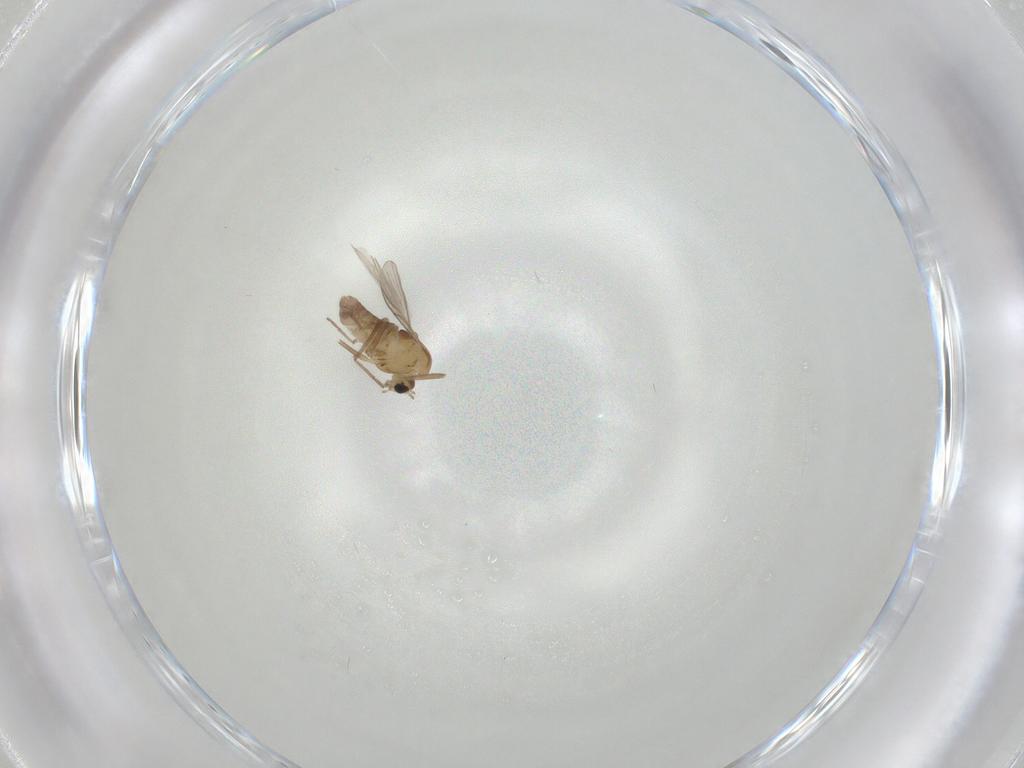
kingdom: Animalia
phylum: Arthropoda
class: Insecta
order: Diptera
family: Chironomidae
